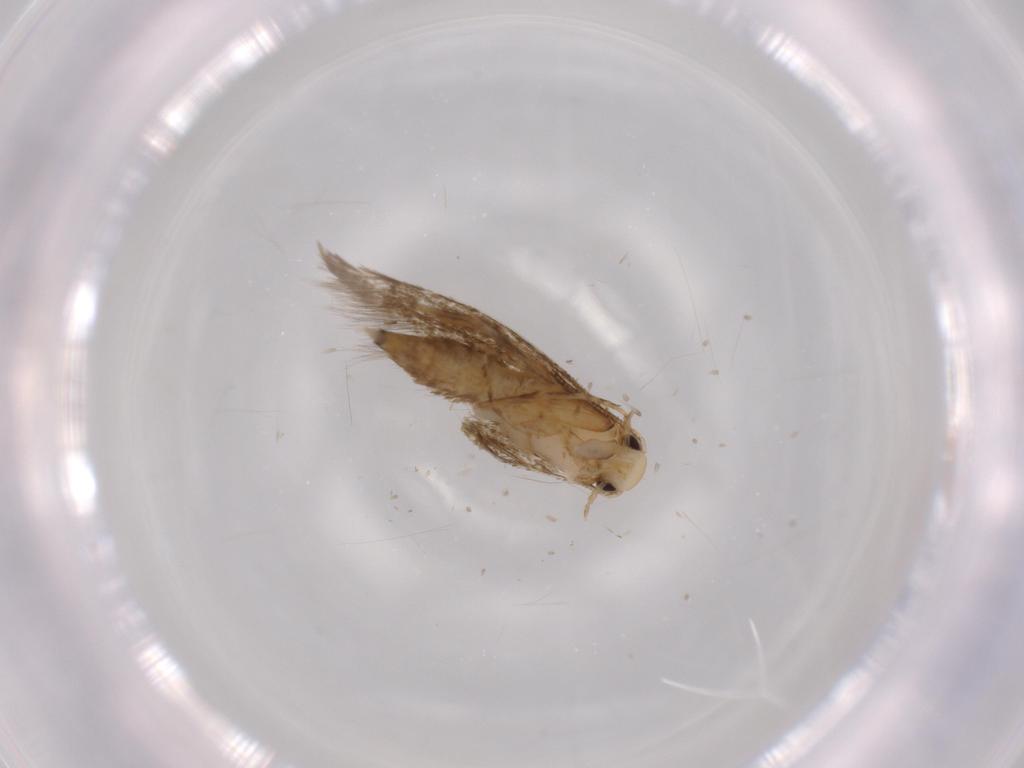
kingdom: Animalia
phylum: Arthropoda
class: Insecta
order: Lepidoptera
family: Tineidae
